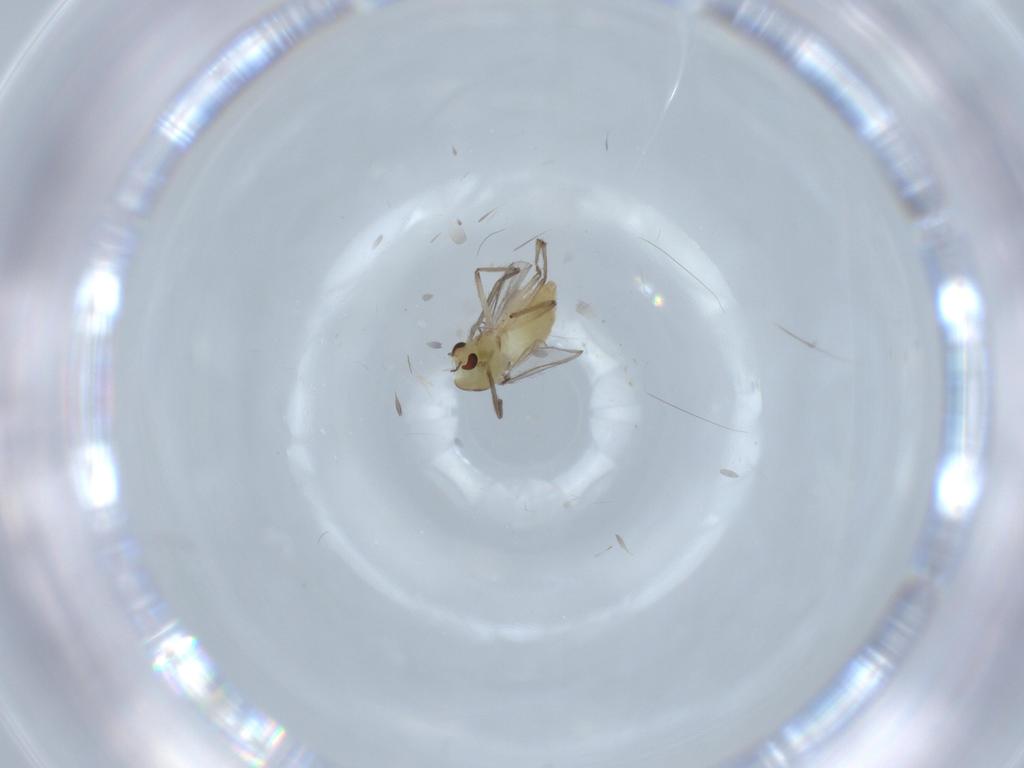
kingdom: Animalia
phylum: Arthropoda
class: Insecta
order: Diptera
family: Chironomidae
